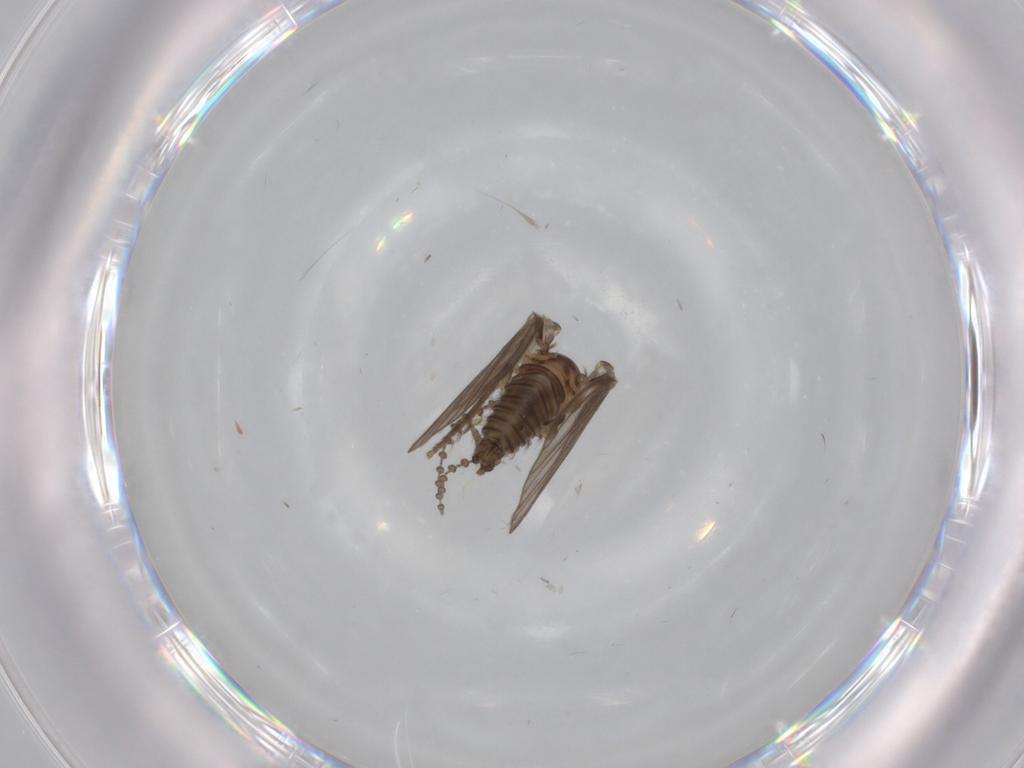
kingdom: Animalia
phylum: Arthropoda
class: Insecta
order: Diptera
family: Psychodidae
